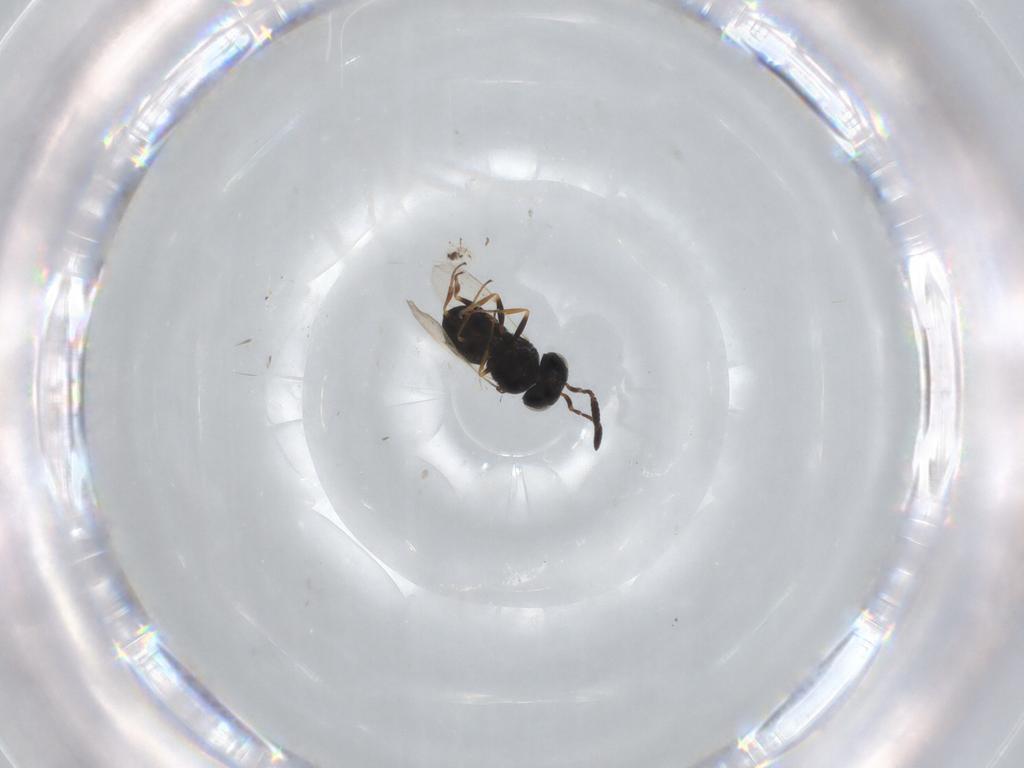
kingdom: Animalia
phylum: Arthropoda
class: Insecta
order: Coleoptera
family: Curculionidae
